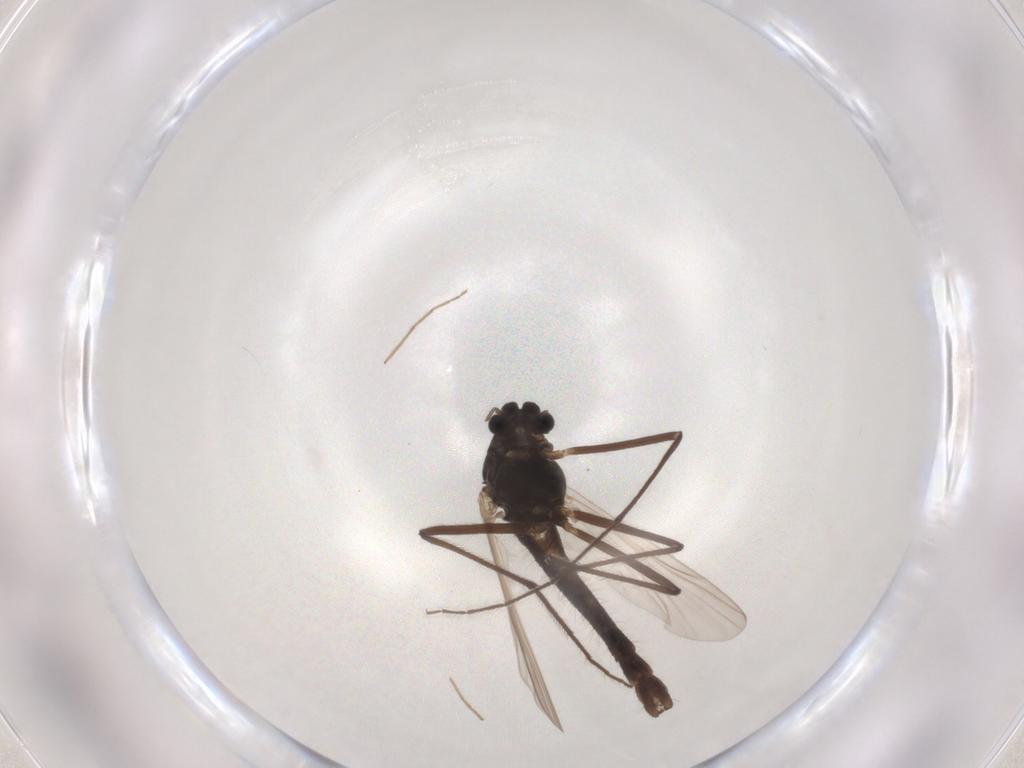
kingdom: Animalia
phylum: Arthropoda
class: Insecta
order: Diptera
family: Chironomidae
